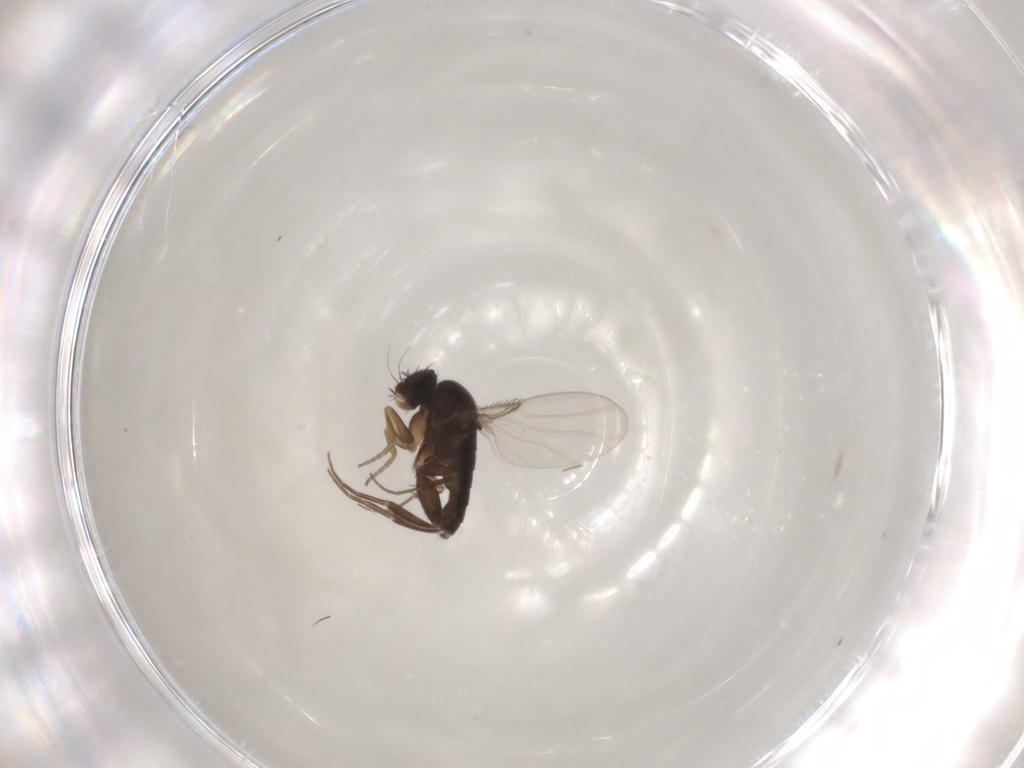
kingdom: Animalia
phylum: Arthropoda
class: Insecta
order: Diptera
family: Phoridae
